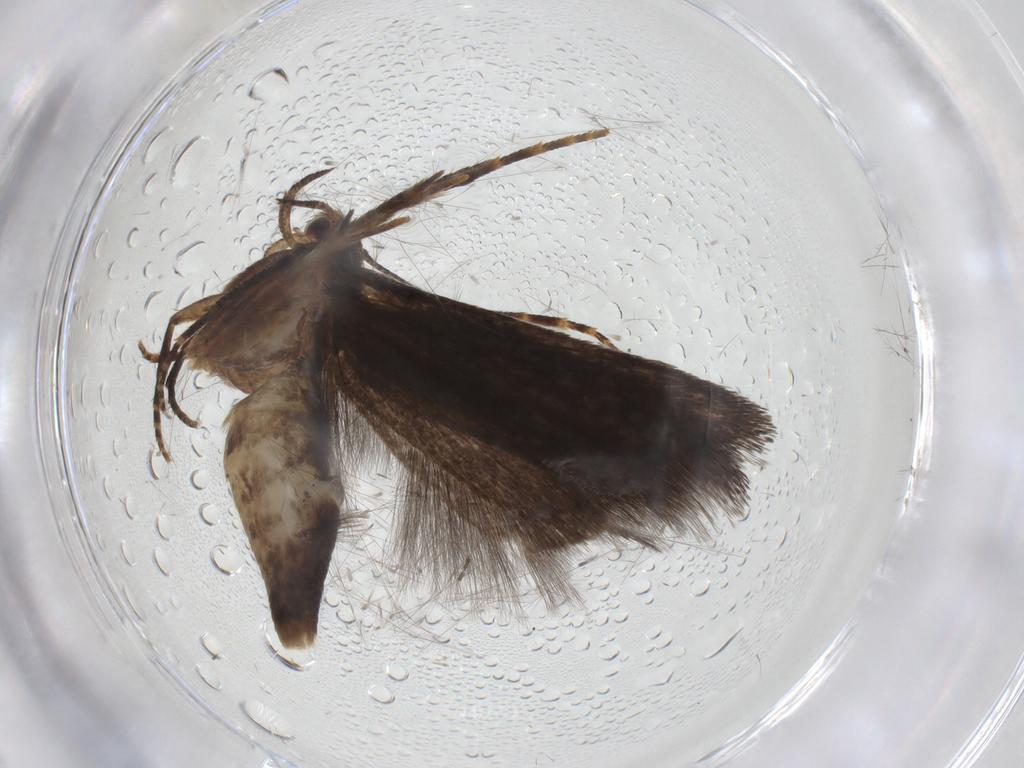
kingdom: Animalia
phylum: Arthropoda
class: Insecta
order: Lepidoptera
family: Gelechiidae
